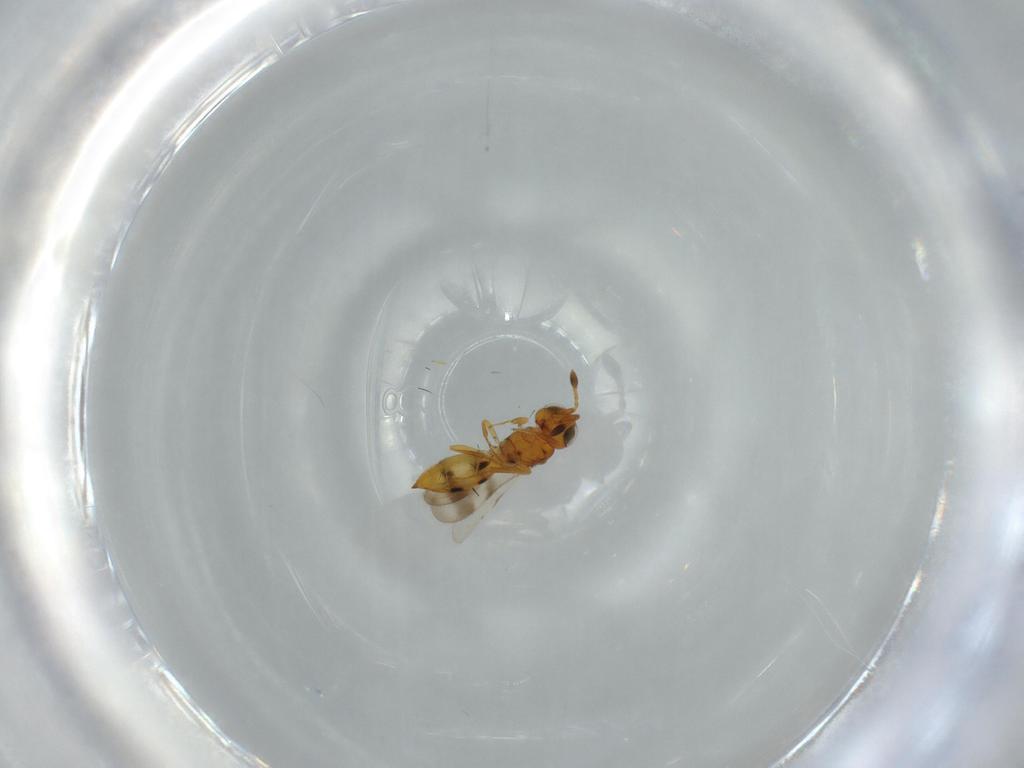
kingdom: Animalia
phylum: Arthropoda
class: Insecta
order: Hymenoptera
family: Scelionidae
